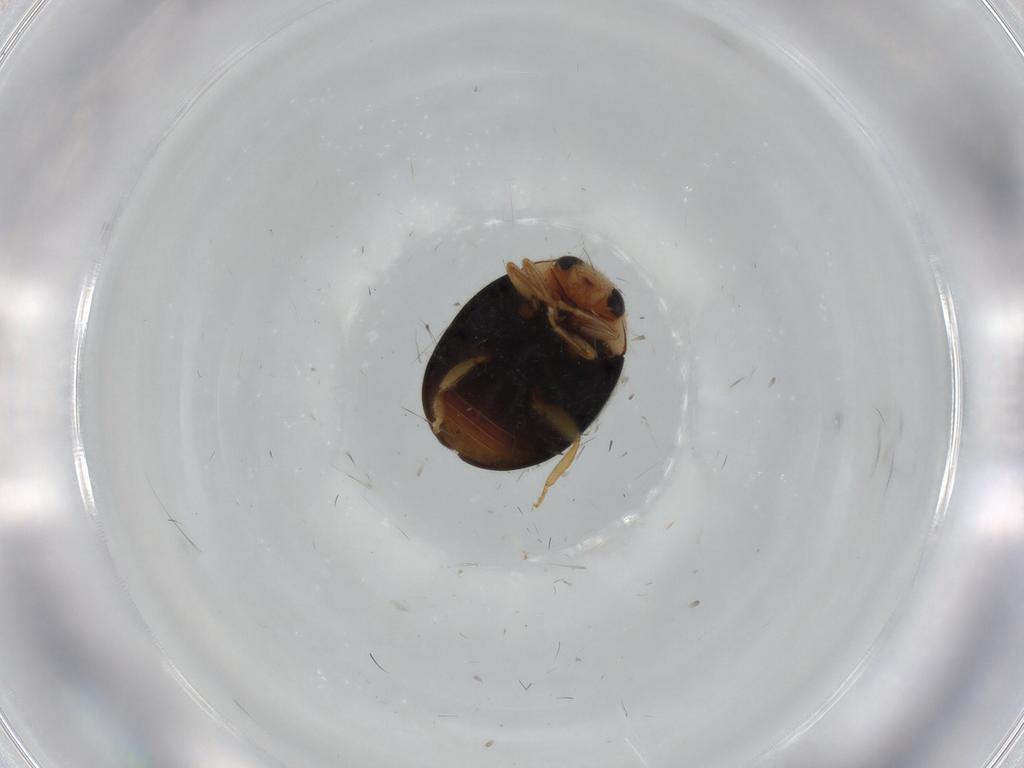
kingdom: Animalia
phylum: Arthropoda
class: Insecta
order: Coleoptera
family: Coccinellidae
